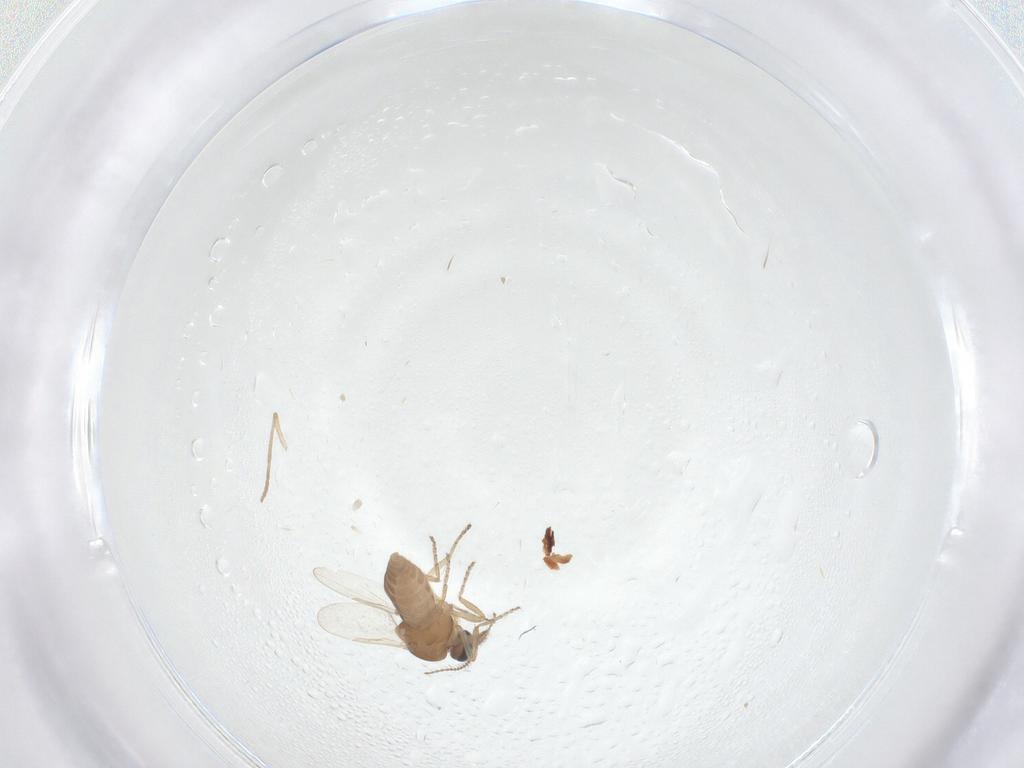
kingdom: Animalia
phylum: Arthropoda
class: Insecta
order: Diptera
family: Ceratopogonidae
